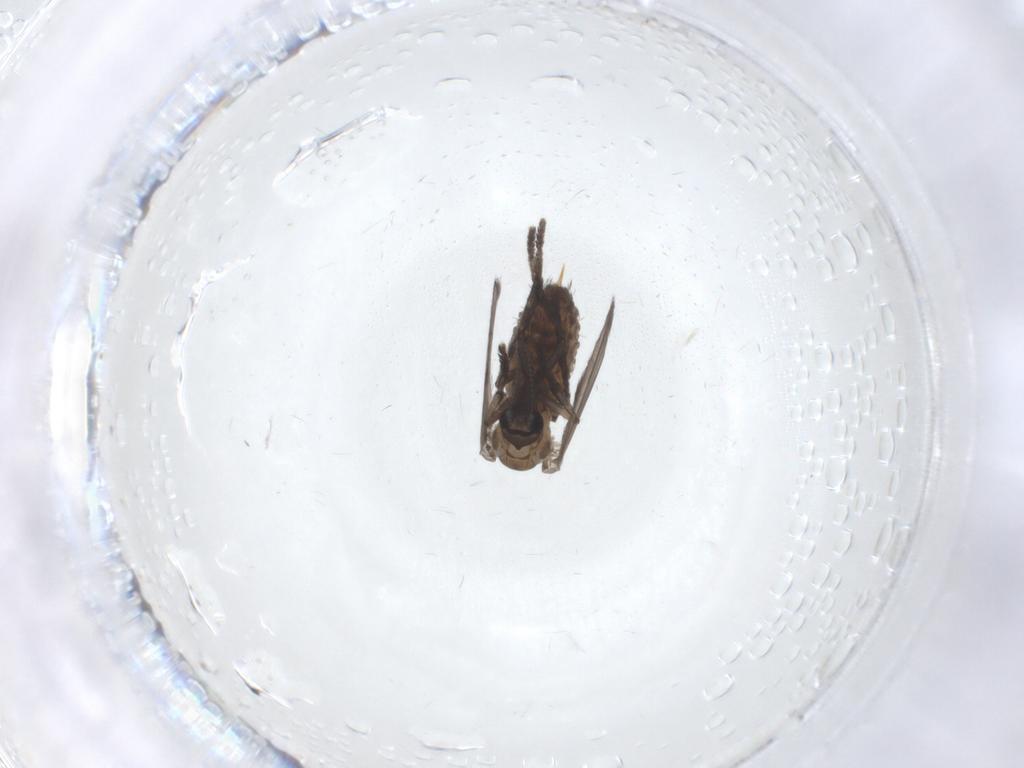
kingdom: Animalia
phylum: Arthropoda
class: Insecta
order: Diptera
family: Psychodidae
